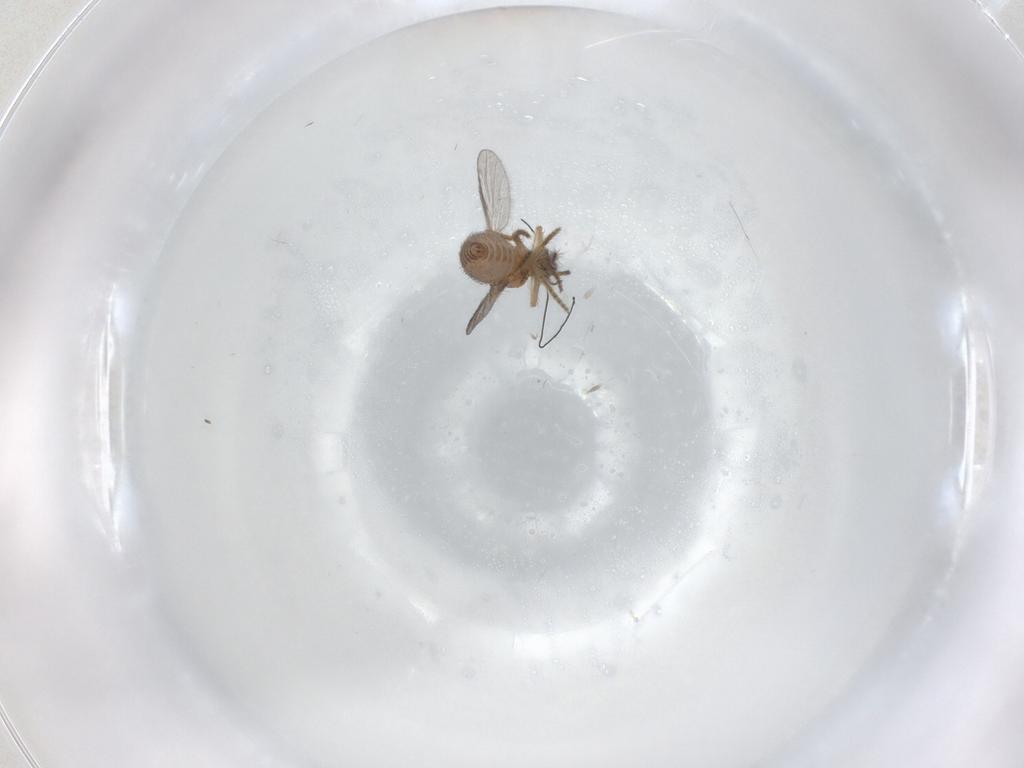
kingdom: Animalia
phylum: Arthropoda
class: Insecta
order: Diptera
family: Ceratopogonidae
